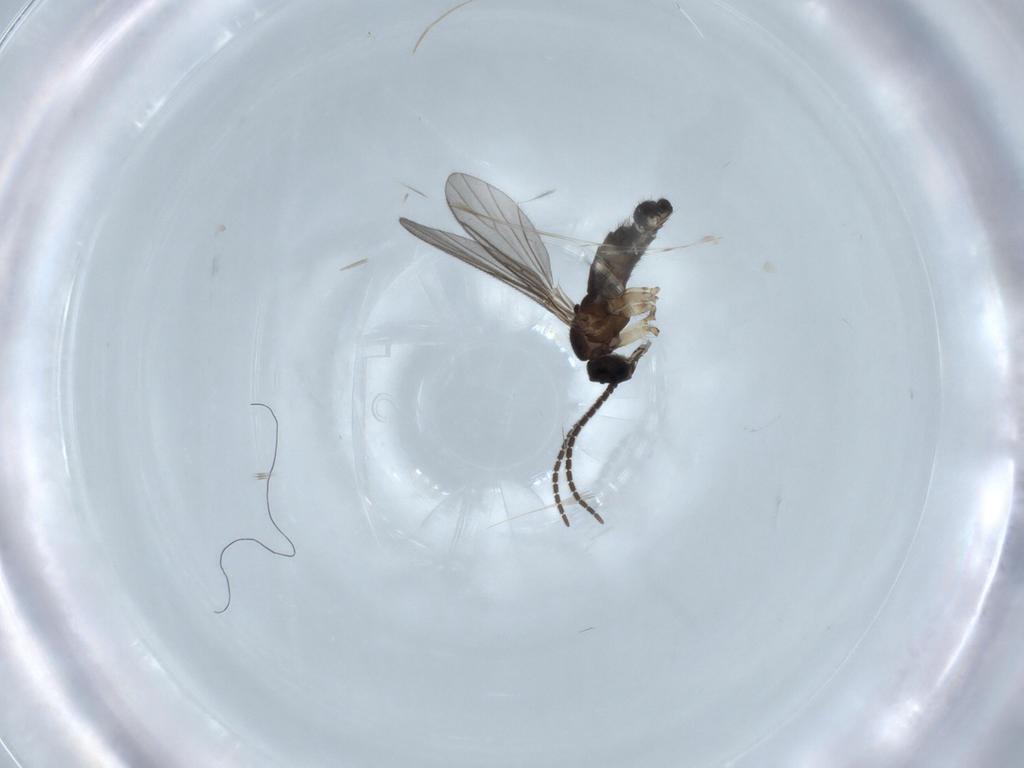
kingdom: Animalia
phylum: Arthropoda
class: Insecta
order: Diptera
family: Sciaridae
